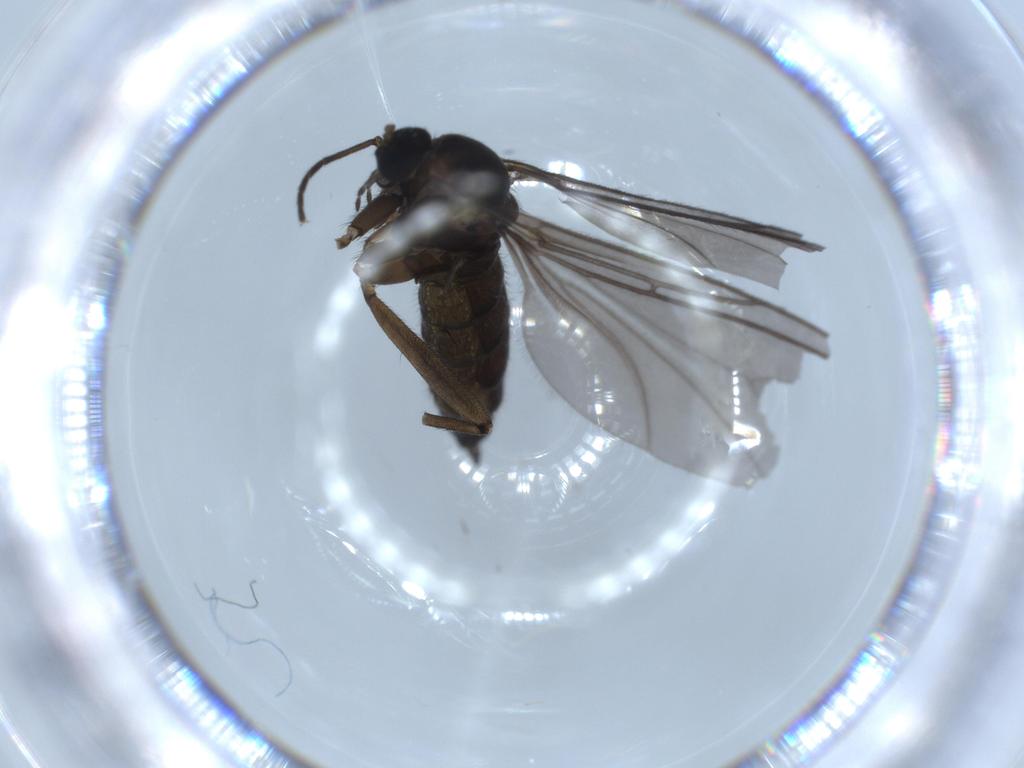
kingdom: Animalia
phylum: Arthropoda
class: Insecta
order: Diptera
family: Sciaridae
